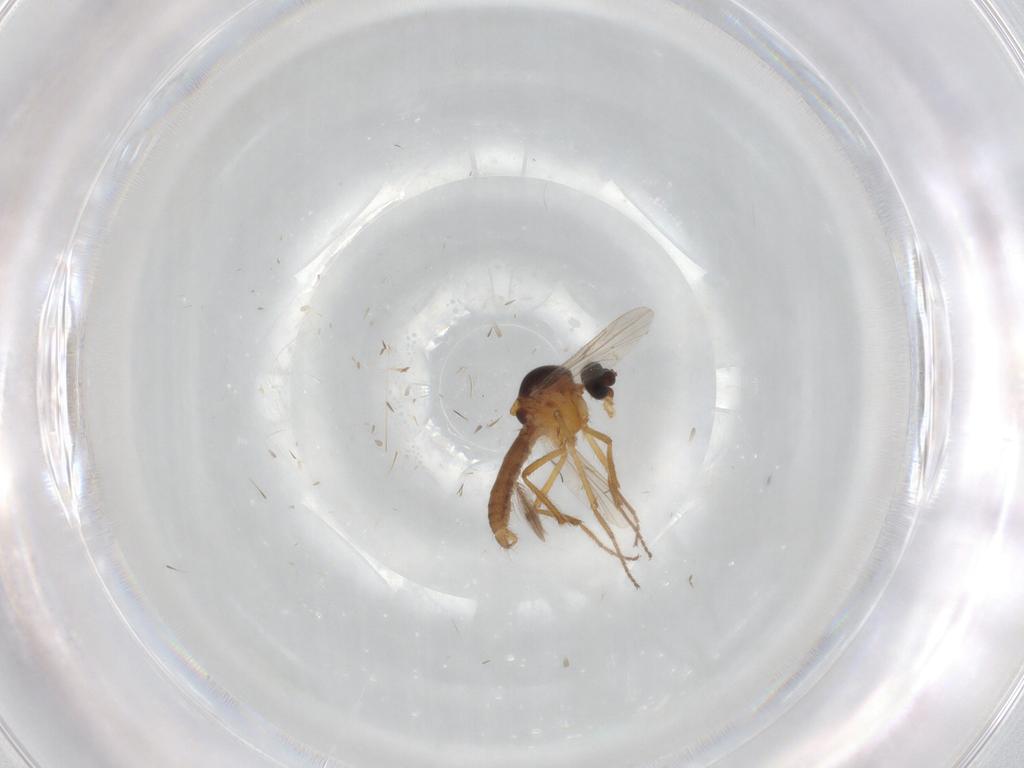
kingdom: Animalia
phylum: Arthropoda
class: Insecta
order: Diptera
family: Ceratopogonidae
